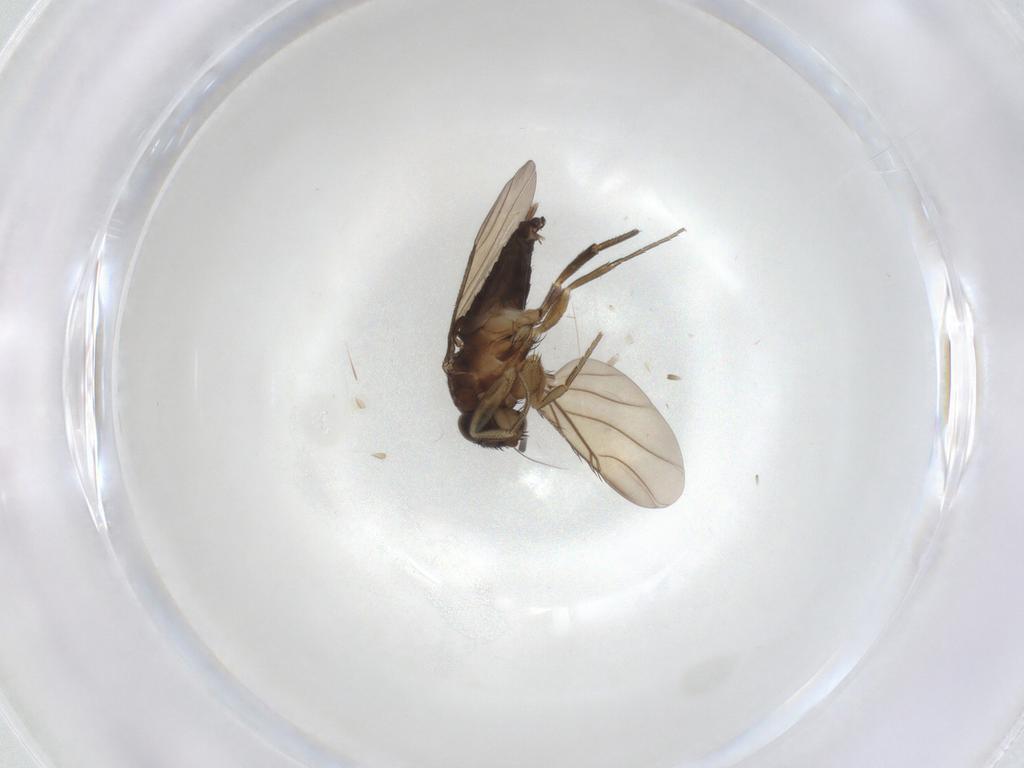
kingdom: Animalia
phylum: Arthropoda
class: Insecta
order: Diptera
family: Phoridae
